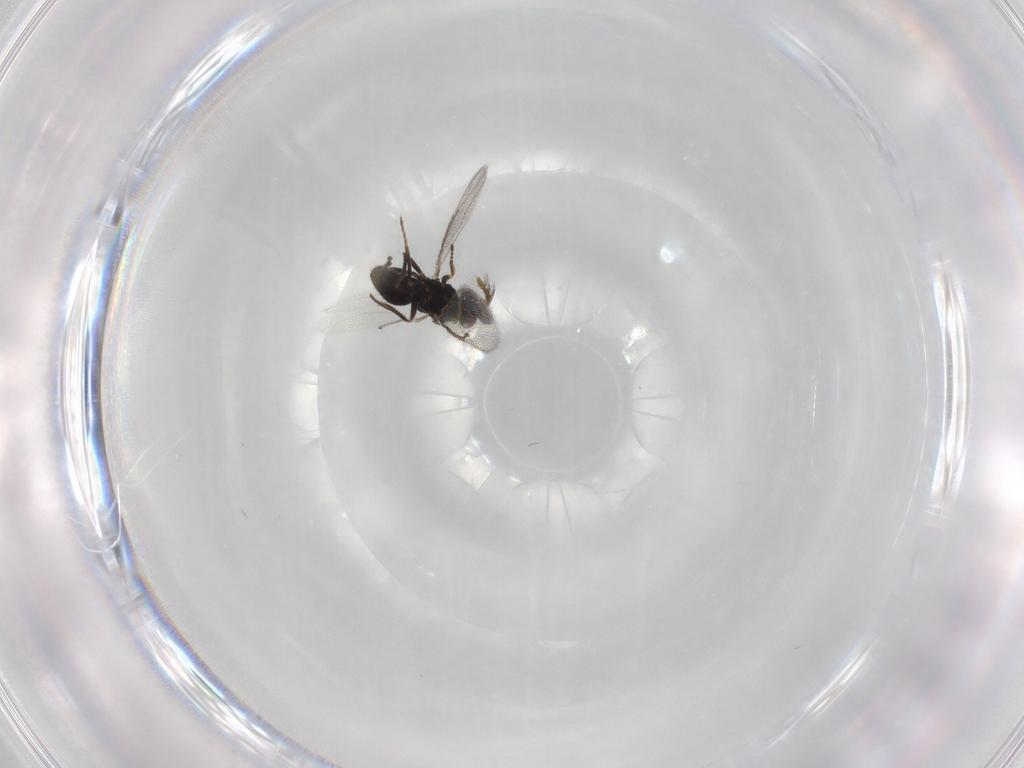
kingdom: Animalia
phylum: Arthropoda
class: Insecta
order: Hymenoptera
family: Eulophidae
